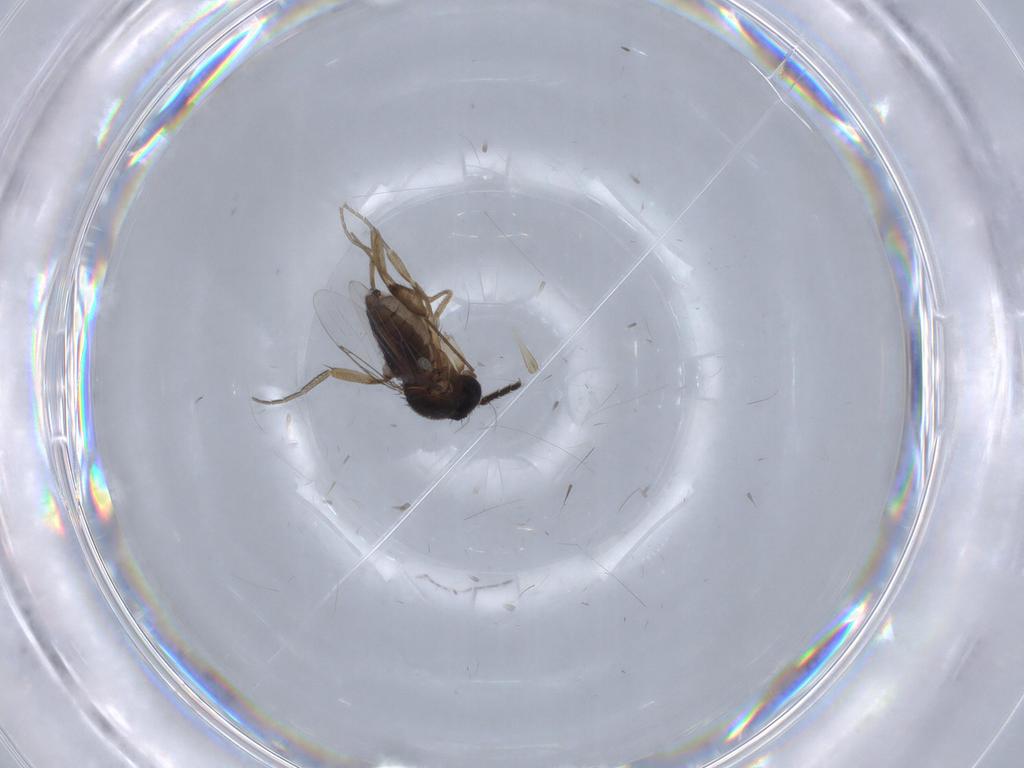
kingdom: Animalia
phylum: Arthropoda
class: Insecta
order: Diptera
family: Phoridae
